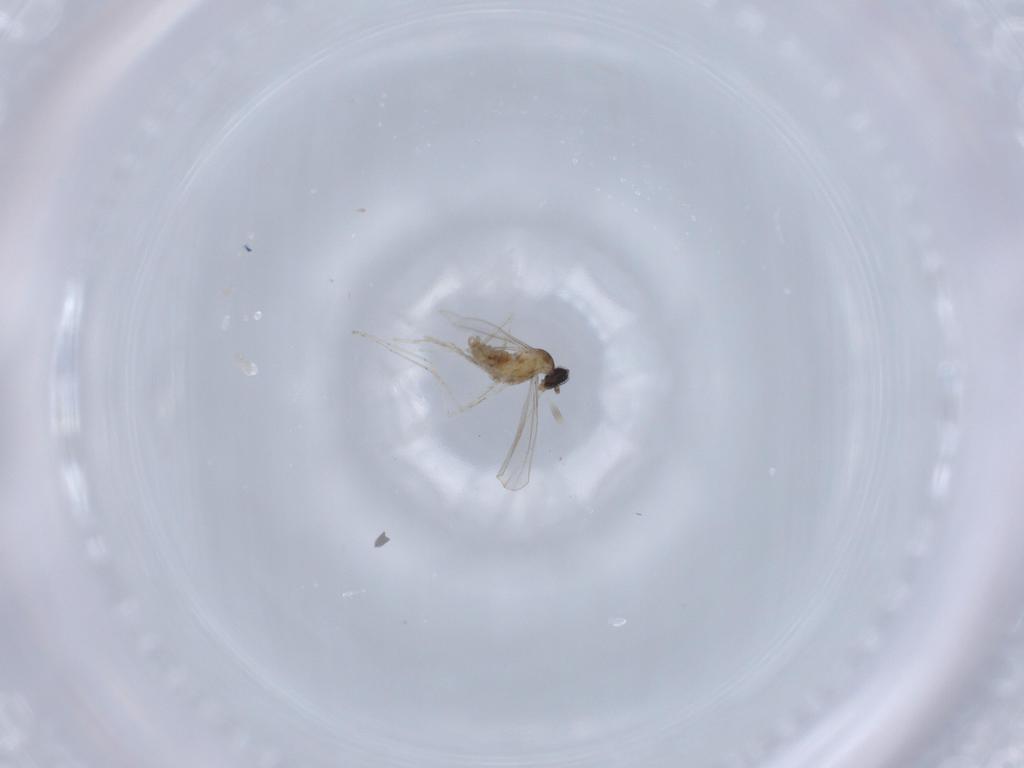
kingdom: Animalia
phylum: Arthropoda
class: Insecta
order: Diptera
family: Cecidomyiidae
